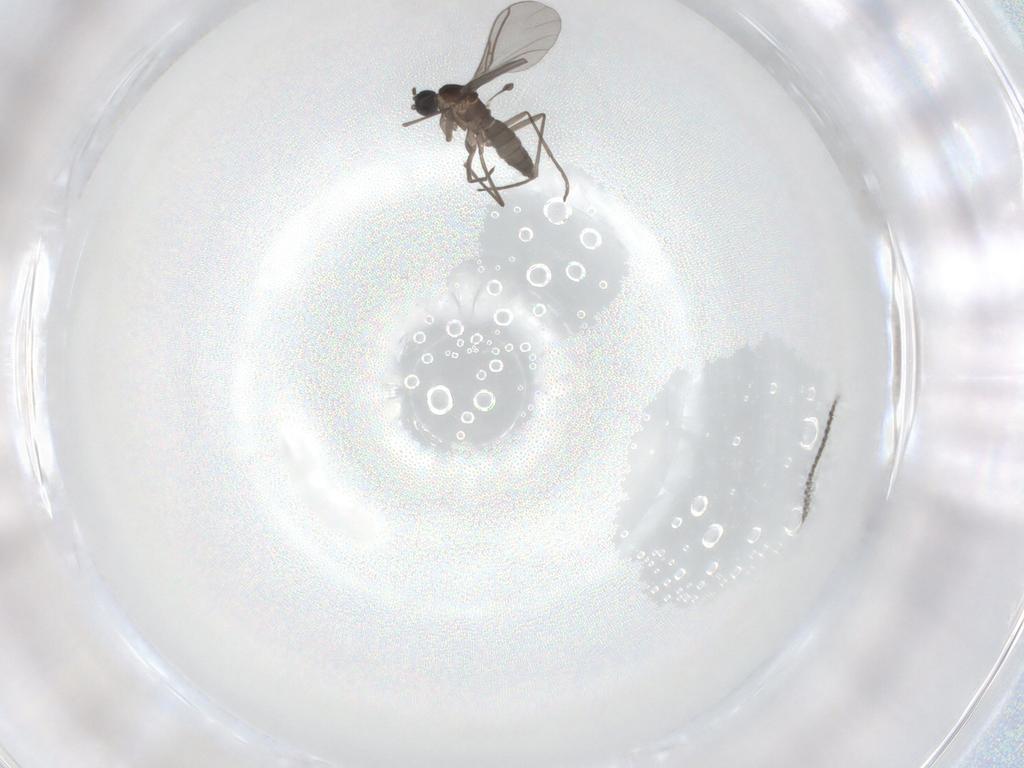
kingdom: Animalia
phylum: Arthropoda
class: Insecta
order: Diptera
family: Sciaridae
